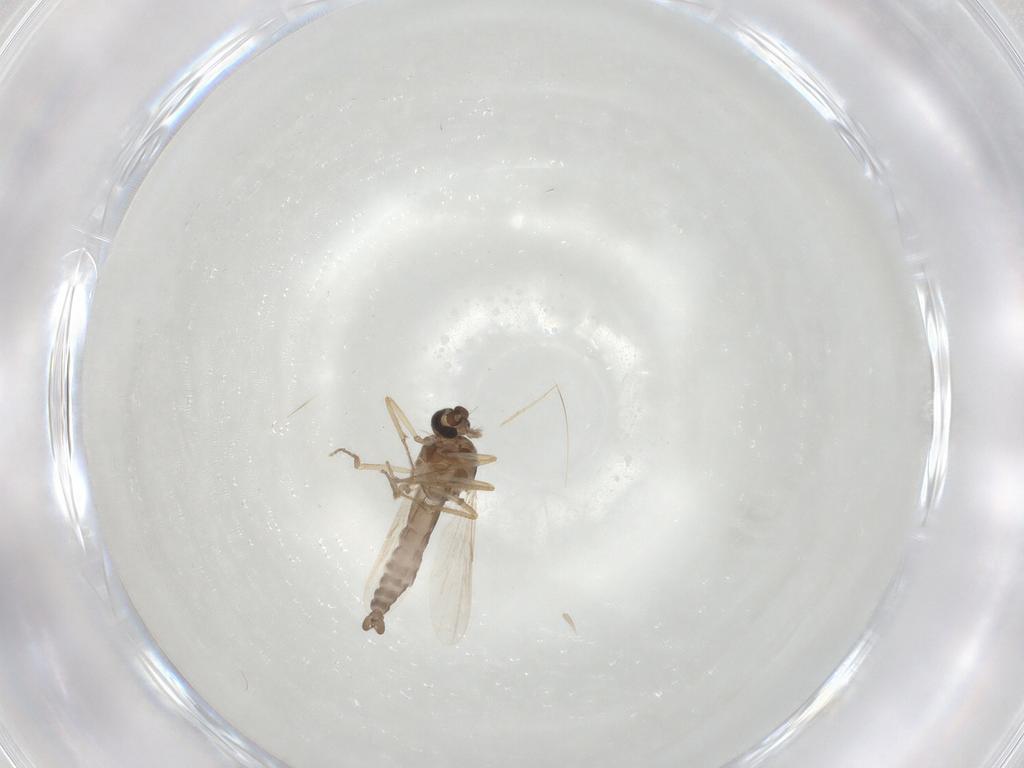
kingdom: Animalia
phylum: Arthropoda
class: Insecta
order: Diptera
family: Ceratopogonidae
